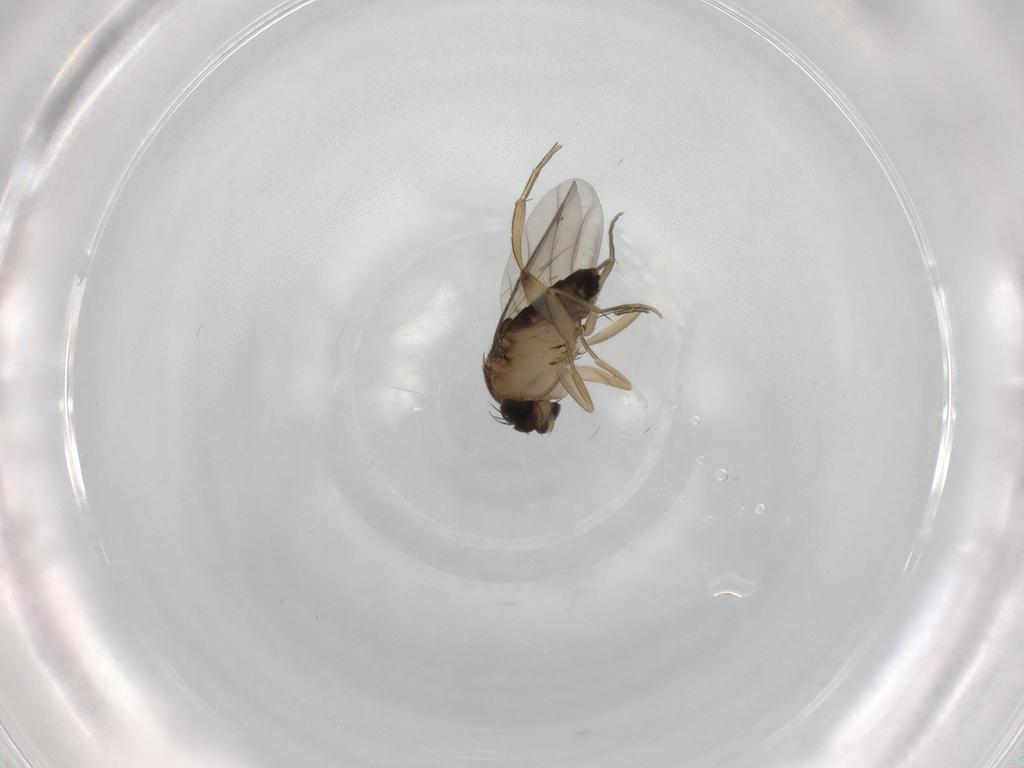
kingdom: Animalia
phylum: Arthropoda
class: Insecta
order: Diptera
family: Phoridae
